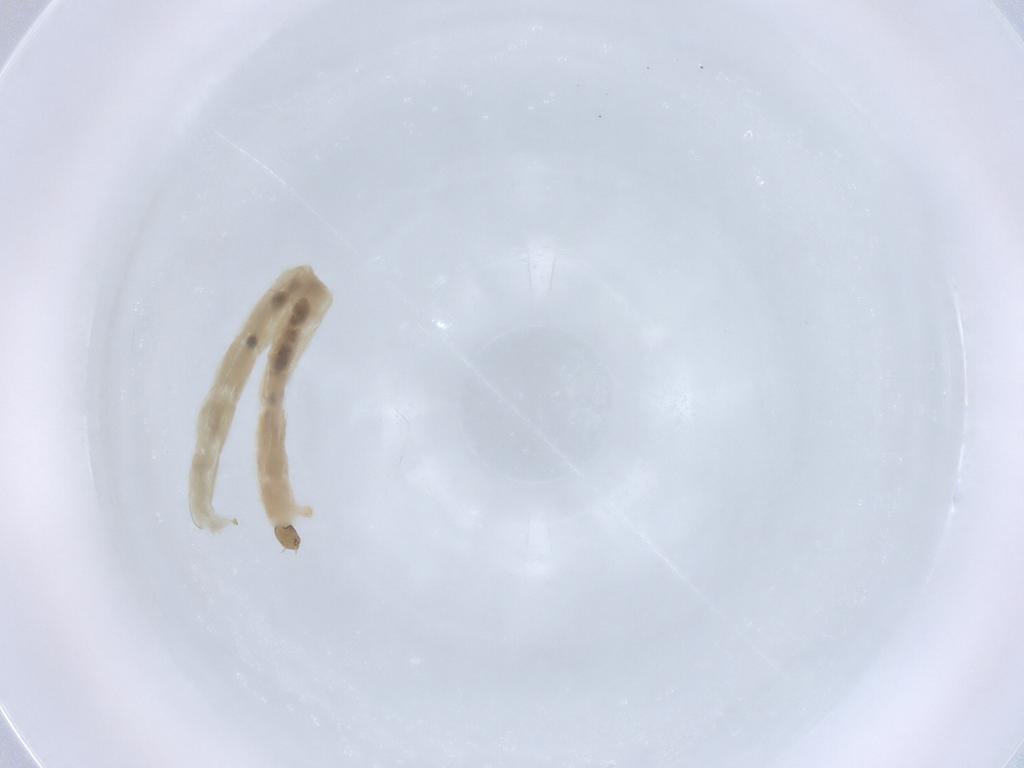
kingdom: Animalia
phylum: Arthropoda
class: Insecta
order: Diptera
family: Chironomidae
